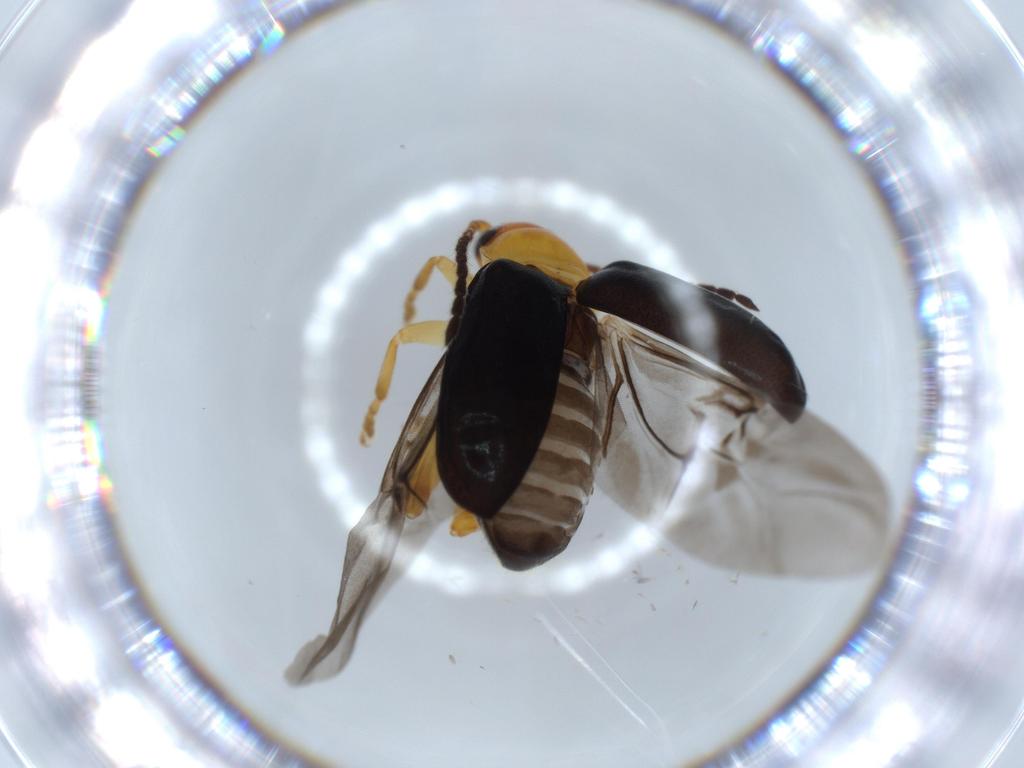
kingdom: Animalia
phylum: Arthropoda
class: Insecta
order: Coleoptera
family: Chrysomelidae
